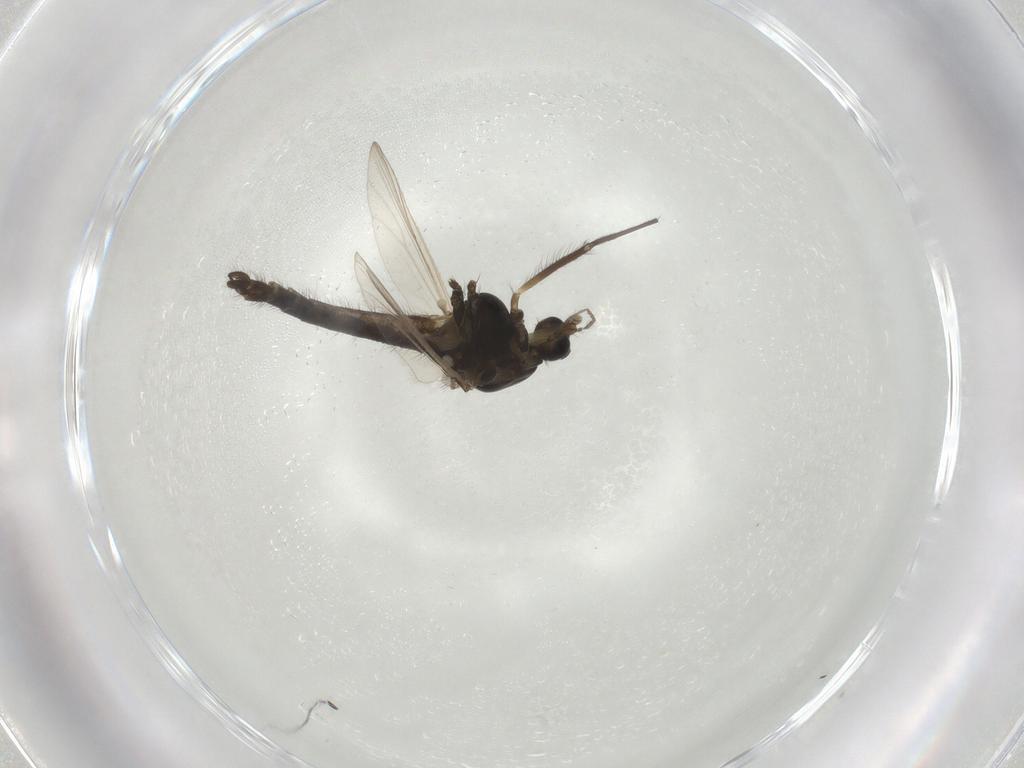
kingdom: Animalia
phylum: Arthropoda
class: Insecta
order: Diptera
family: Chironomidae
